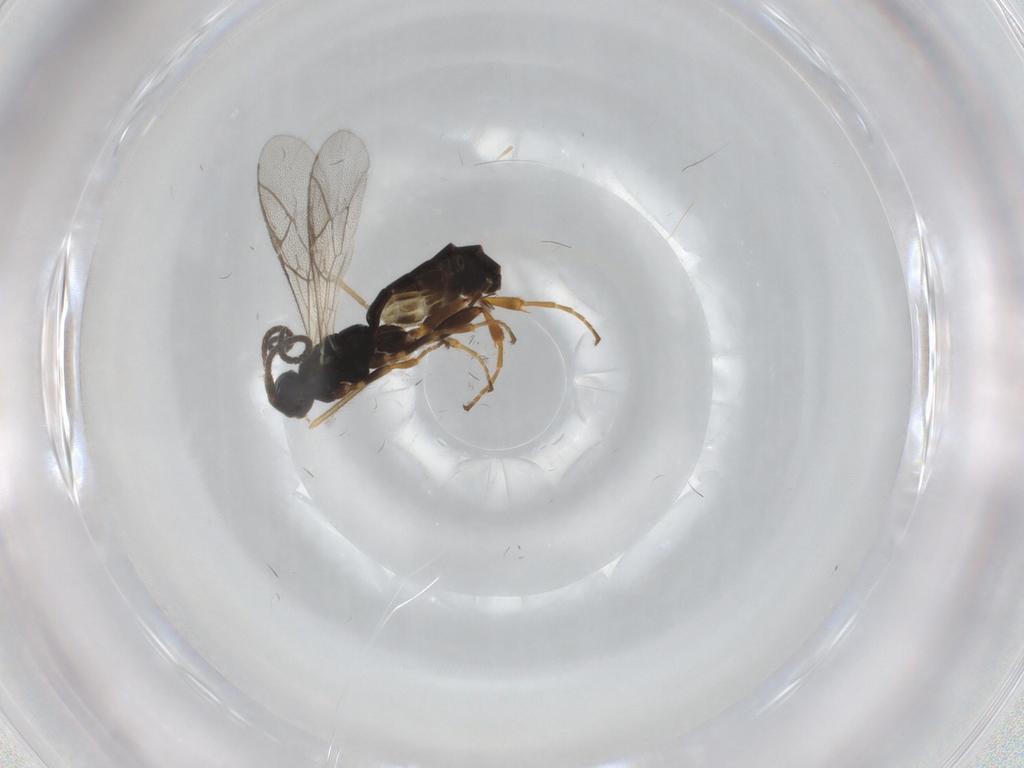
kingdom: Animalia
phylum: Arthropoda
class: Insecta
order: Hymenoptera
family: Ichneumonidae
